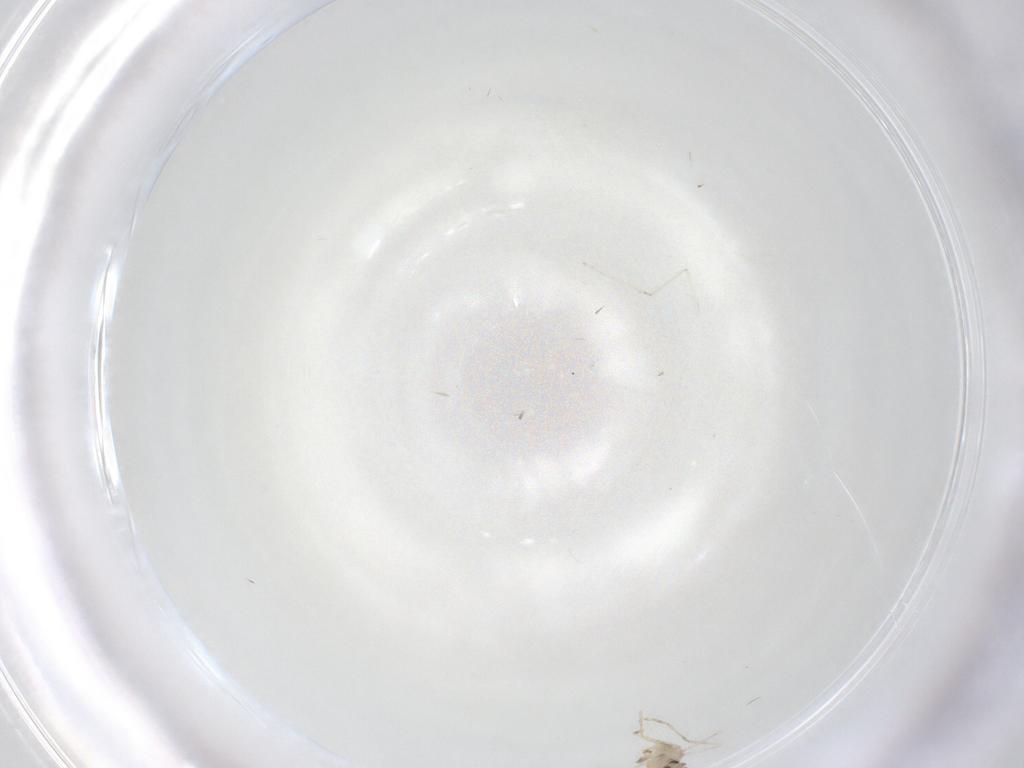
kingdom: Animalia
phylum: Arthropoda
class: Insecta
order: Diptera
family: Cecidomyiidae
